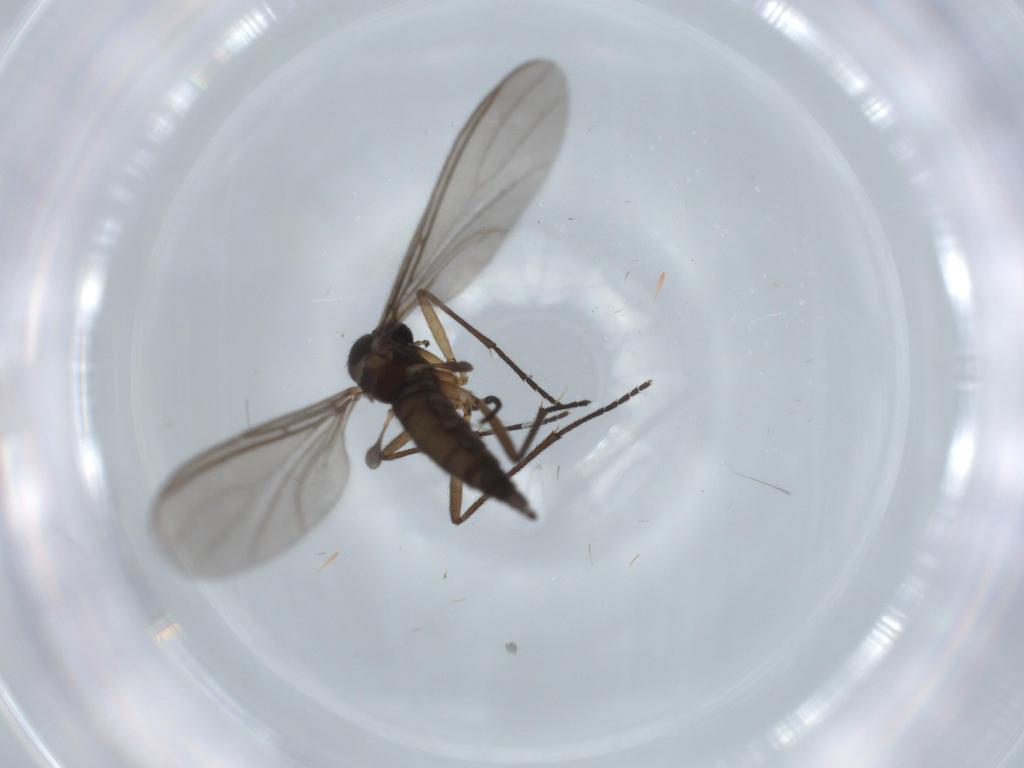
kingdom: Animalia
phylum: Arthropoda
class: Insecta
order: Diptera
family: Sciaridae
